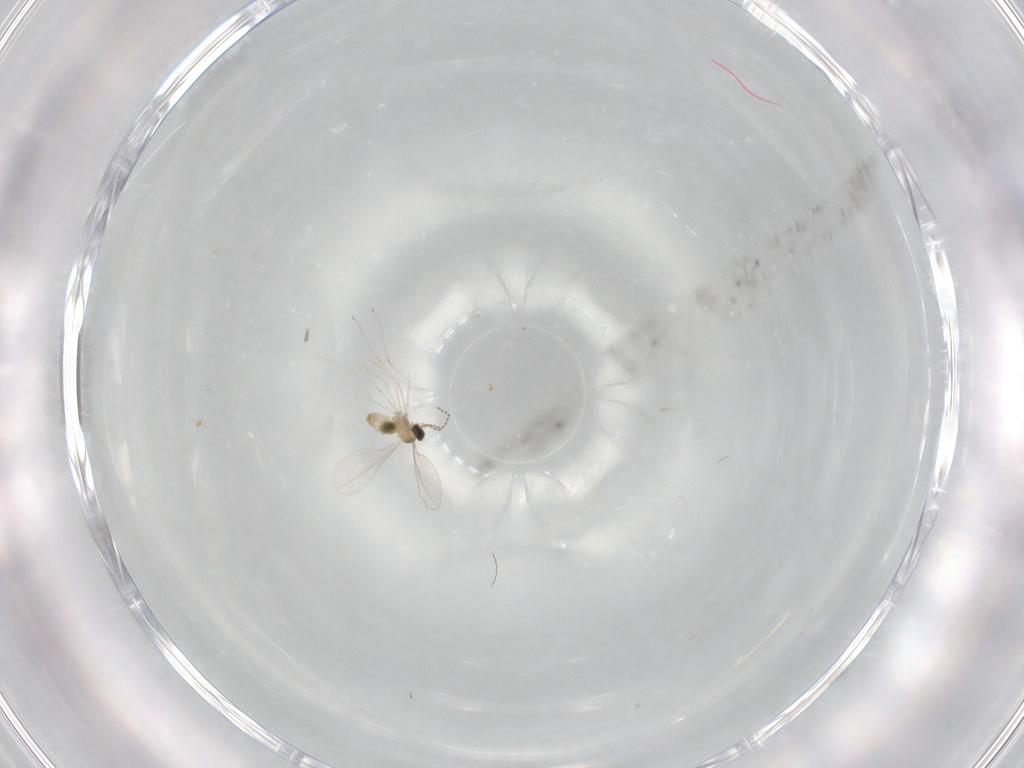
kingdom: Animalia
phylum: Arthropoda
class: Insecta
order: Diptera
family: Cecidomyiidae
